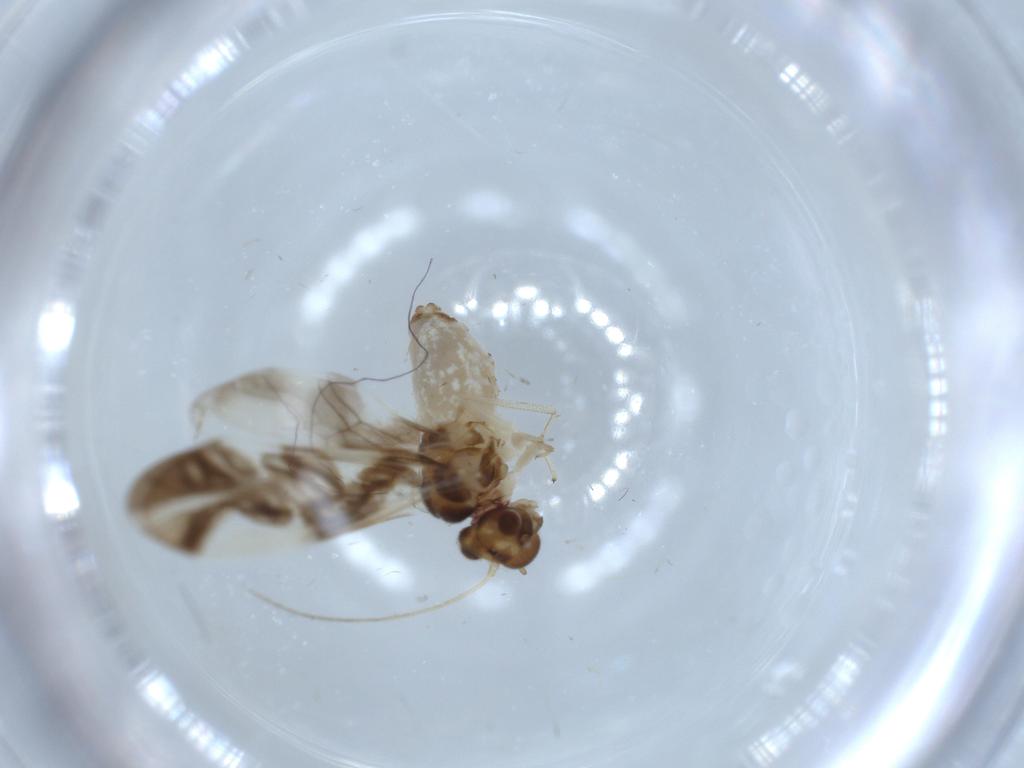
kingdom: Animalia
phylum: Arthropoda
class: Insecta
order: Psocodea
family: Caeciliusidae
